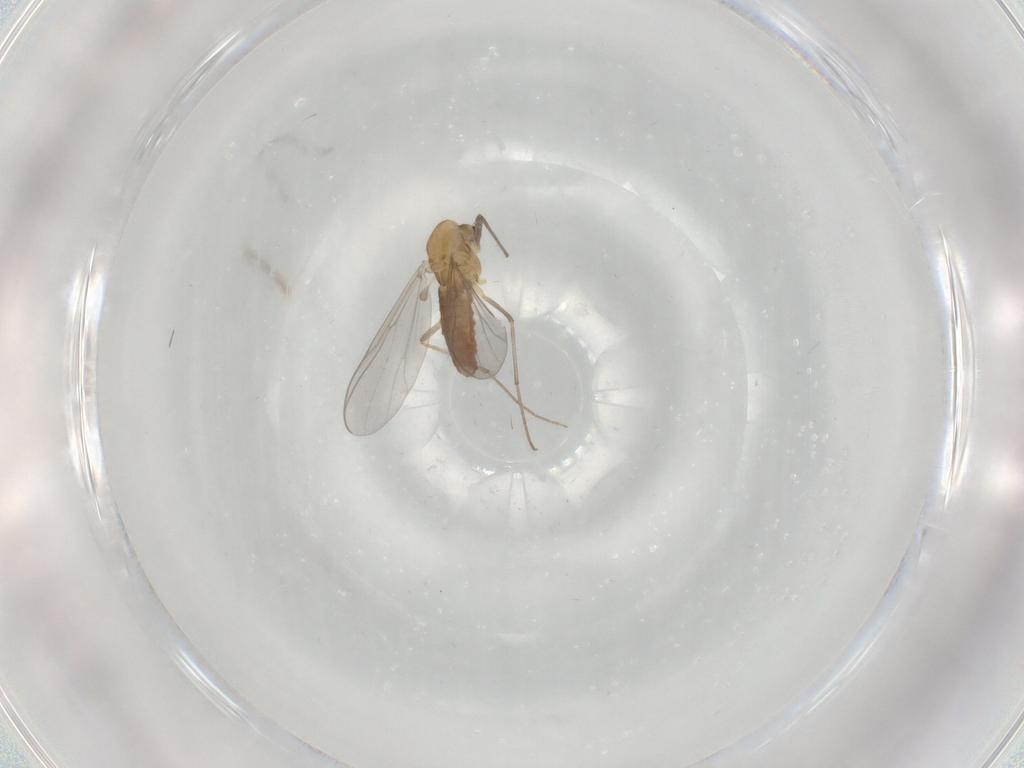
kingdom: Animalia
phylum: Arthropoda
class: Insecta
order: Diptera
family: Chironomidae
